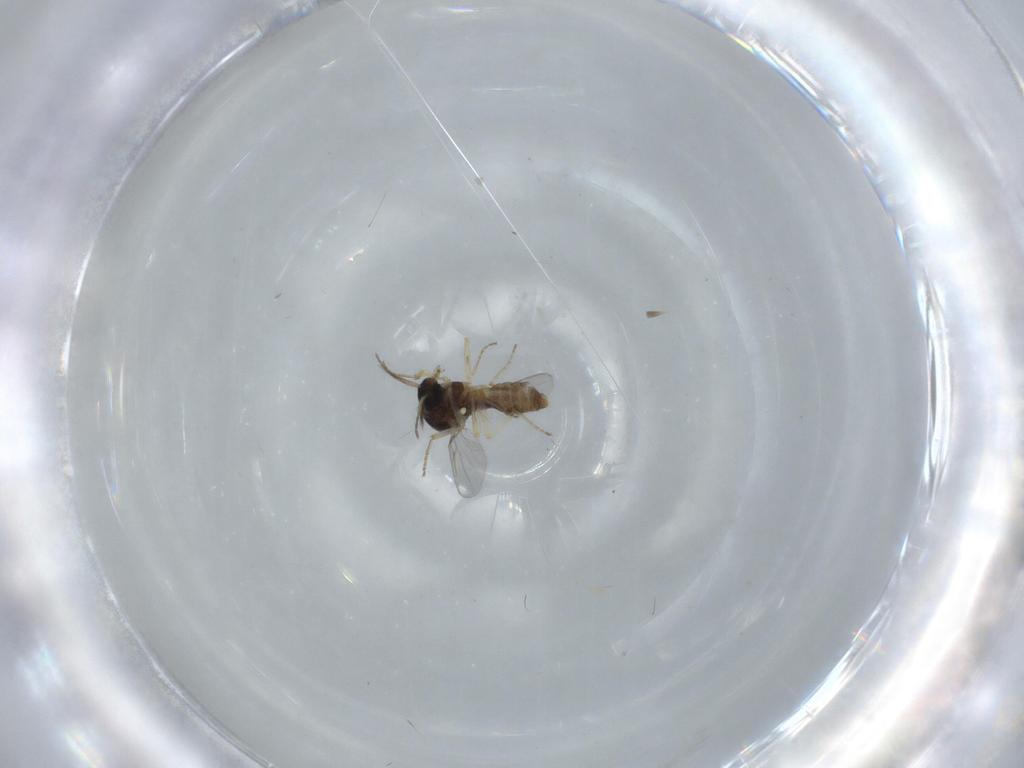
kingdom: Animalia
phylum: Arthropoda
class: Insecta
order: Diptera
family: Ceratopogonidae
